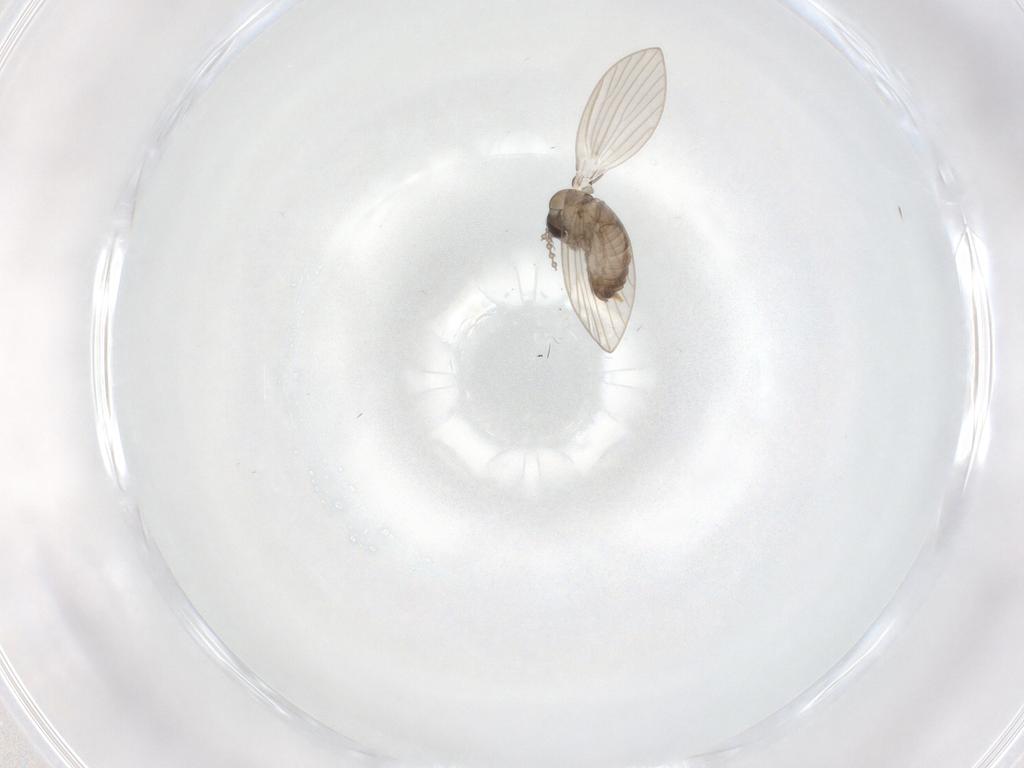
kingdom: Animalia
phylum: Arthropoda
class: Insecta
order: Diptera
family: Psychodidae
